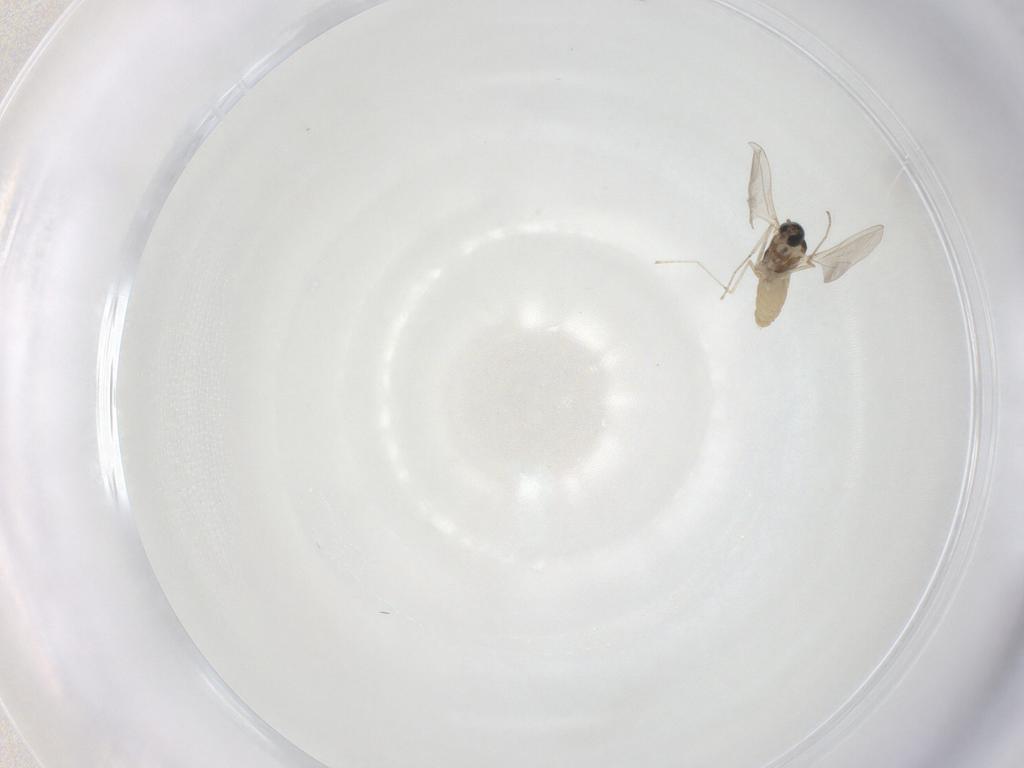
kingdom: Animalia
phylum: Arthropoda
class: Insecta
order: Diptera
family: Cecidomyiidae
